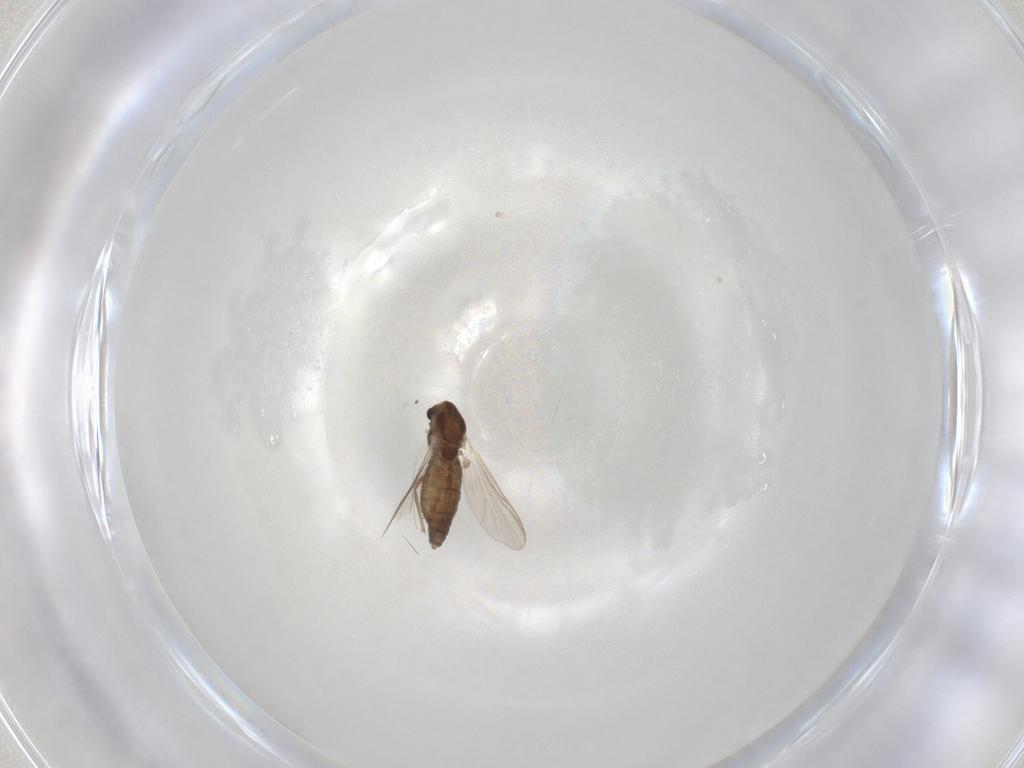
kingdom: Animalia
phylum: Arthropoda
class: Insecta
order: Diptera
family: Chironomidae
